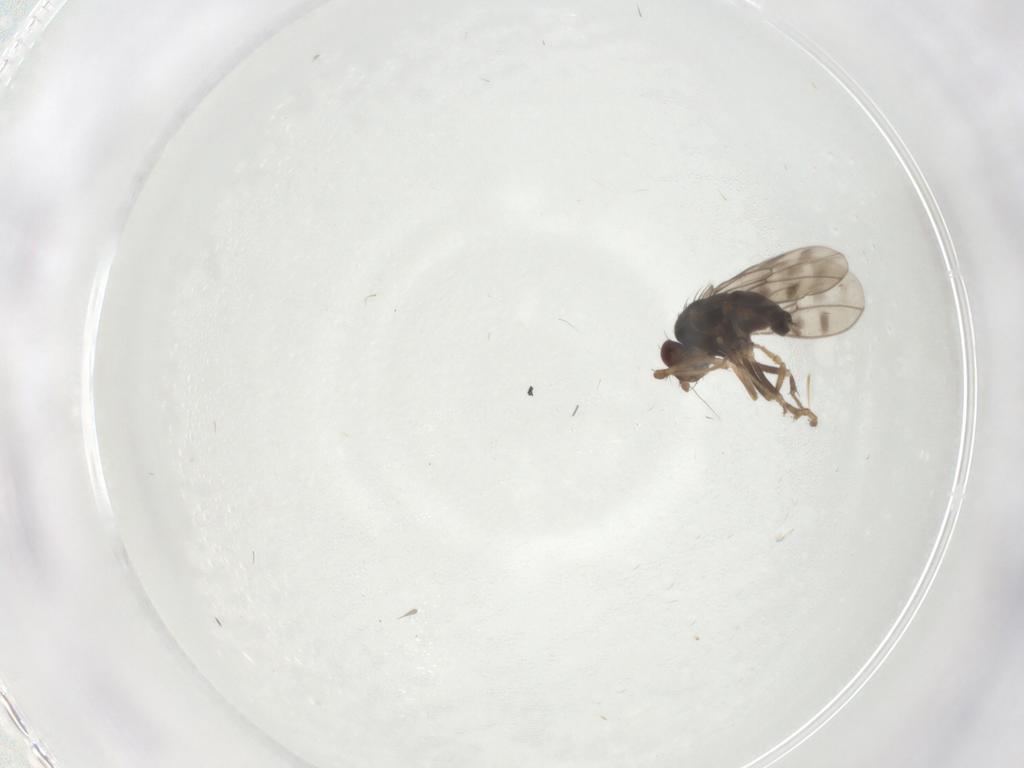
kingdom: Animalia
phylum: Arthropoda
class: Insecta
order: Diptera
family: Sphaeroceridae
